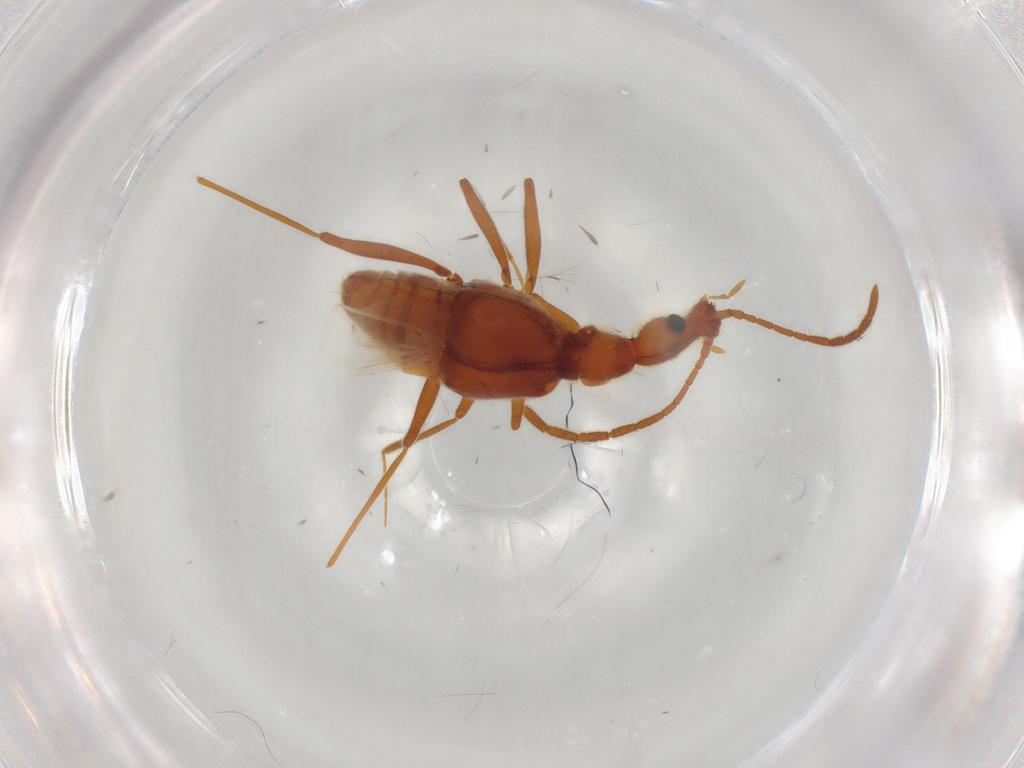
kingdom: Animalia
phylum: Arthropoda
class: Insecta
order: Coleoptera
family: Staphylinidae
